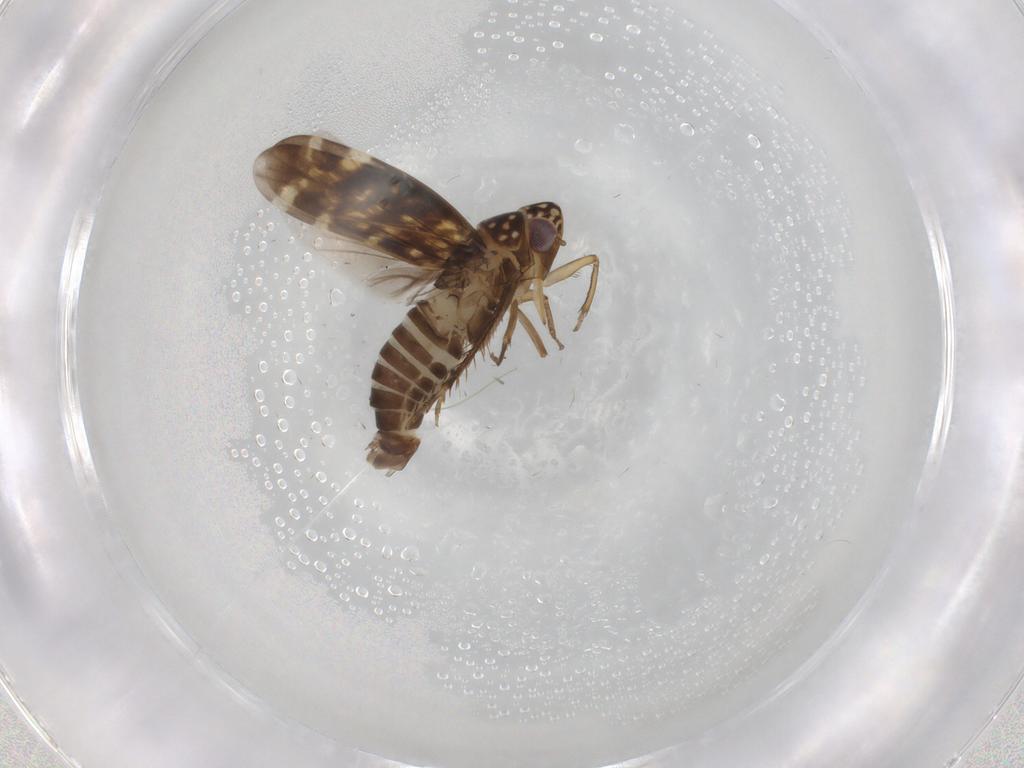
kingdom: Animalia
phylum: Arthropoda
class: Insecta
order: Hemiptera
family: Cicadellidae
